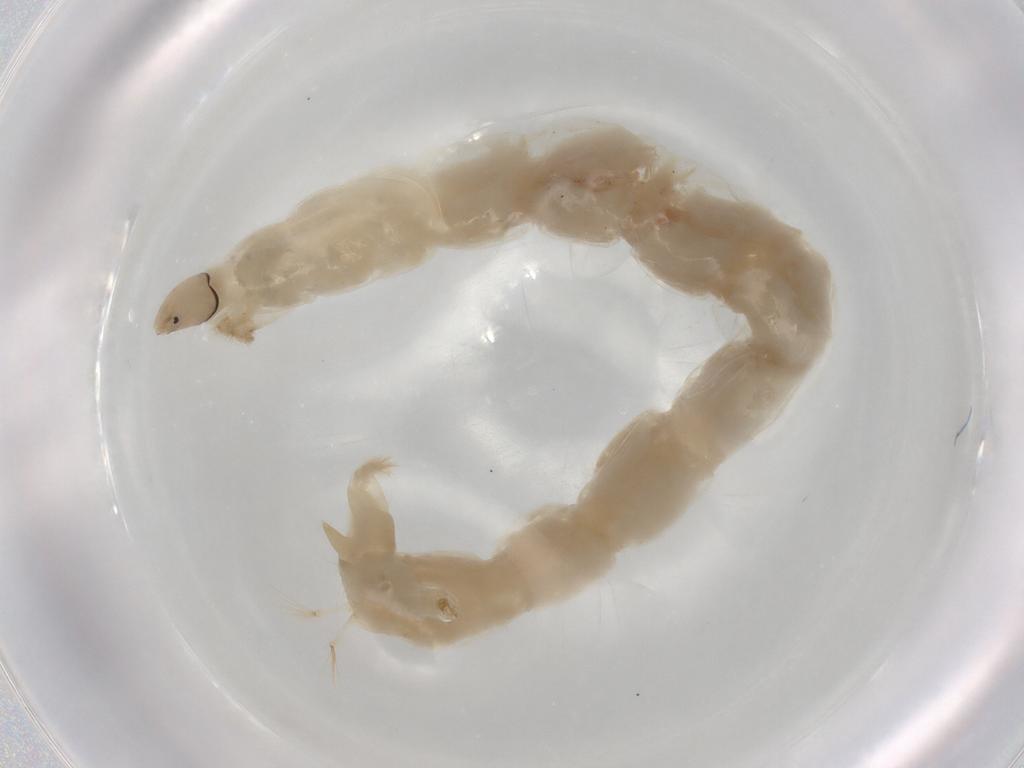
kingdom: Animalia
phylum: Arthropoda
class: Insecta
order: Diptera
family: Chironomidae
